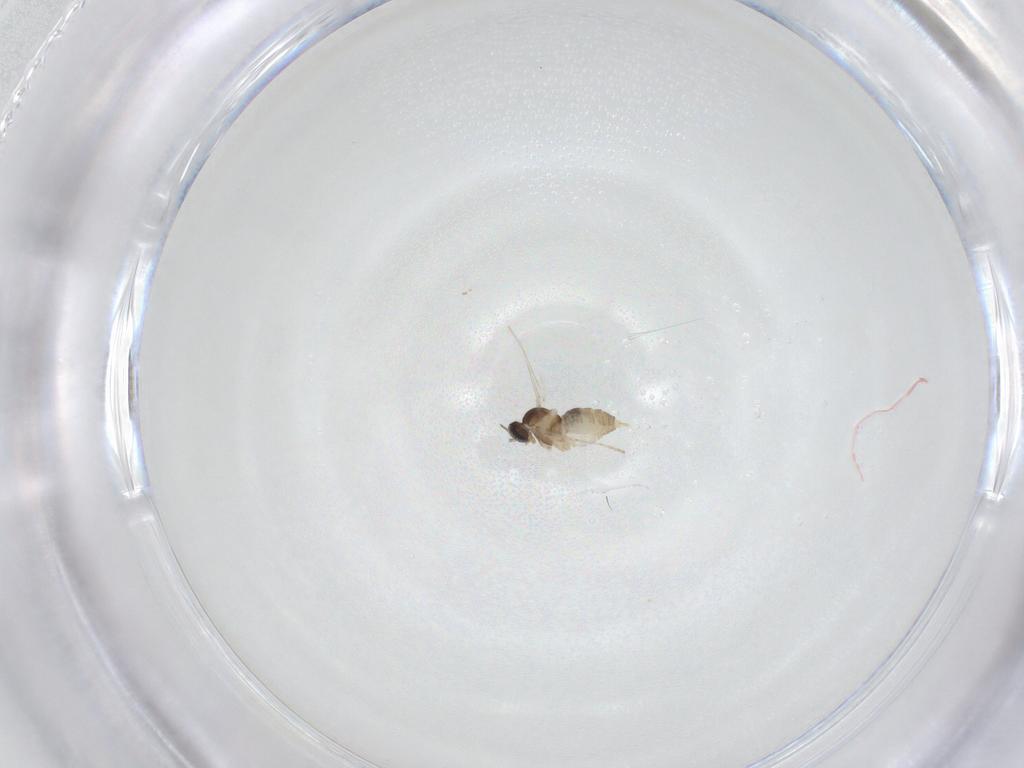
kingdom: Animalia
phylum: Arthropoda
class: Insecta
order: Diptera
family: Cecidomyiidae
